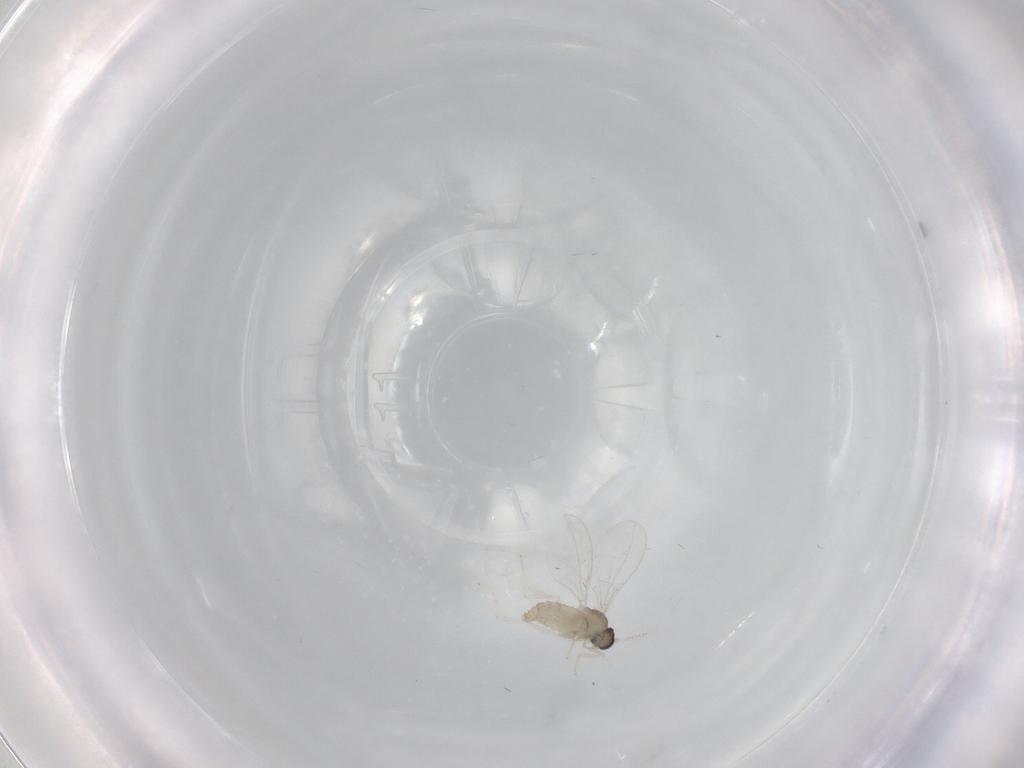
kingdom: Animalia
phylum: Arthropoda
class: Insecta
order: Diptera
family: Cecidomyiidae
